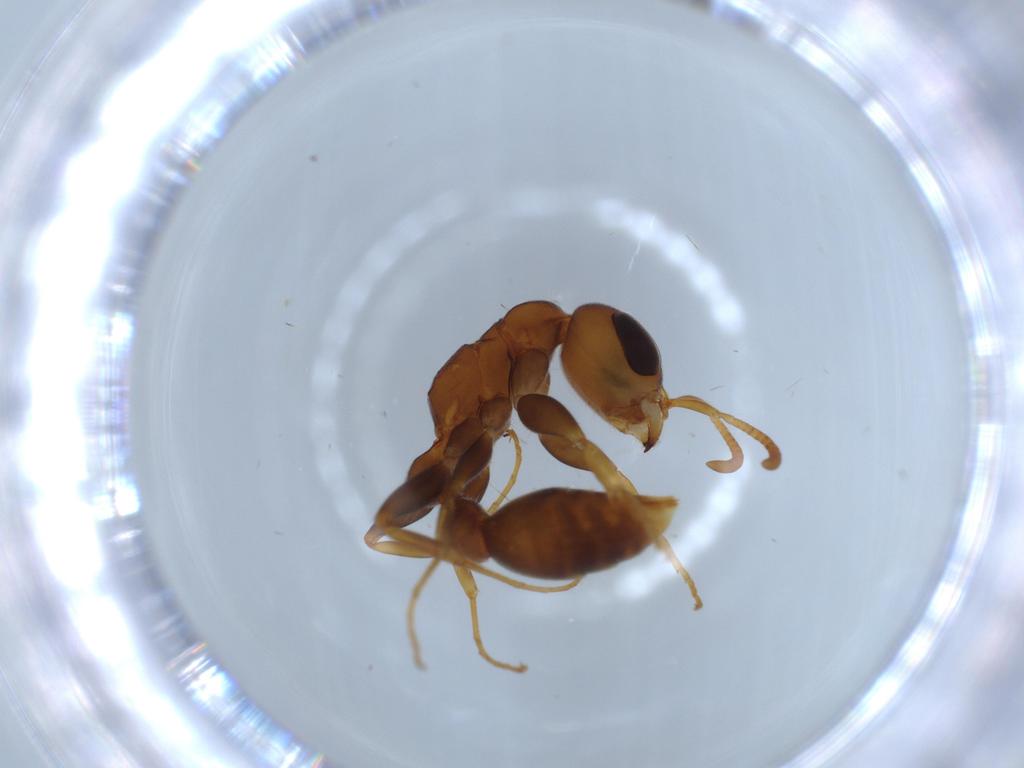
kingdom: Animalia
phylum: Arthropoda
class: Insecta
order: Hymenoptera
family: Formicidae
